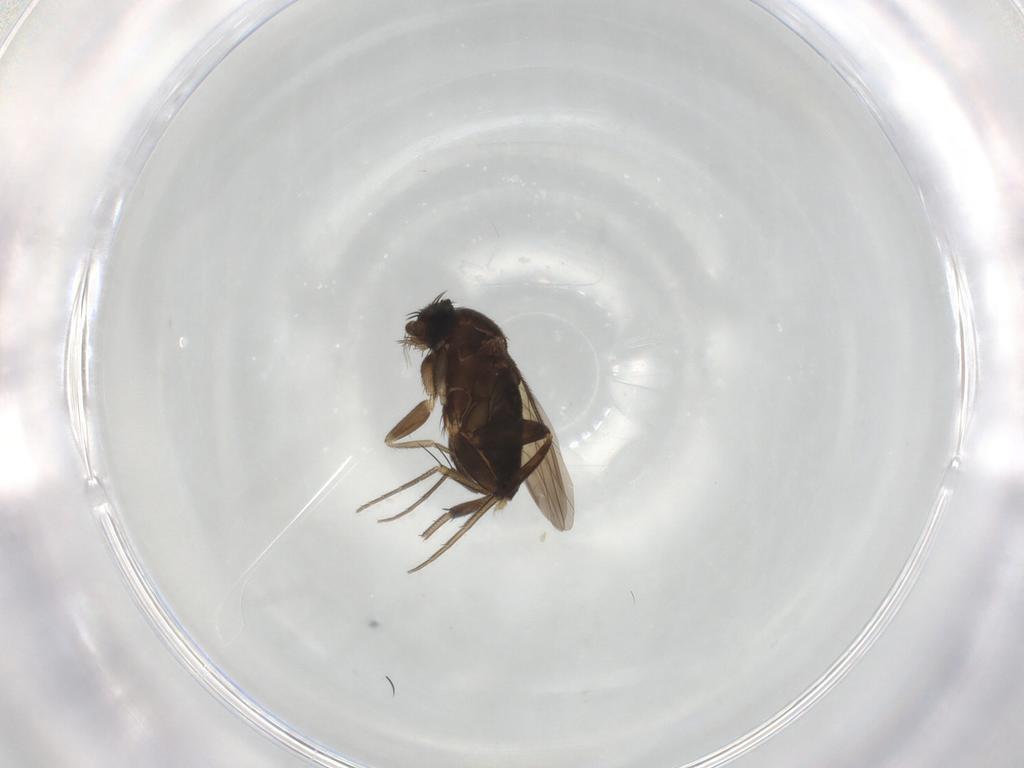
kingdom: Animalia
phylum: Arthropoda
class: Insecta
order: Diptera
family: Phoridae
